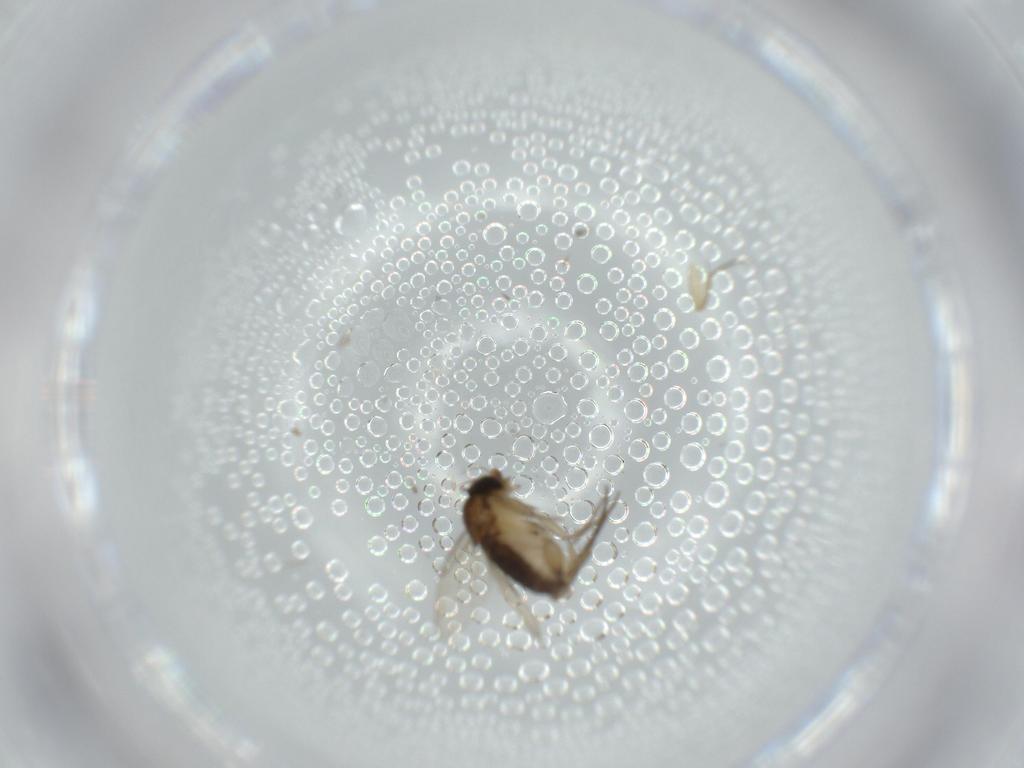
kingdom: Animalia
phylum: Arthropoda
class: Insecta
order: Diptera
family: Phoridae
